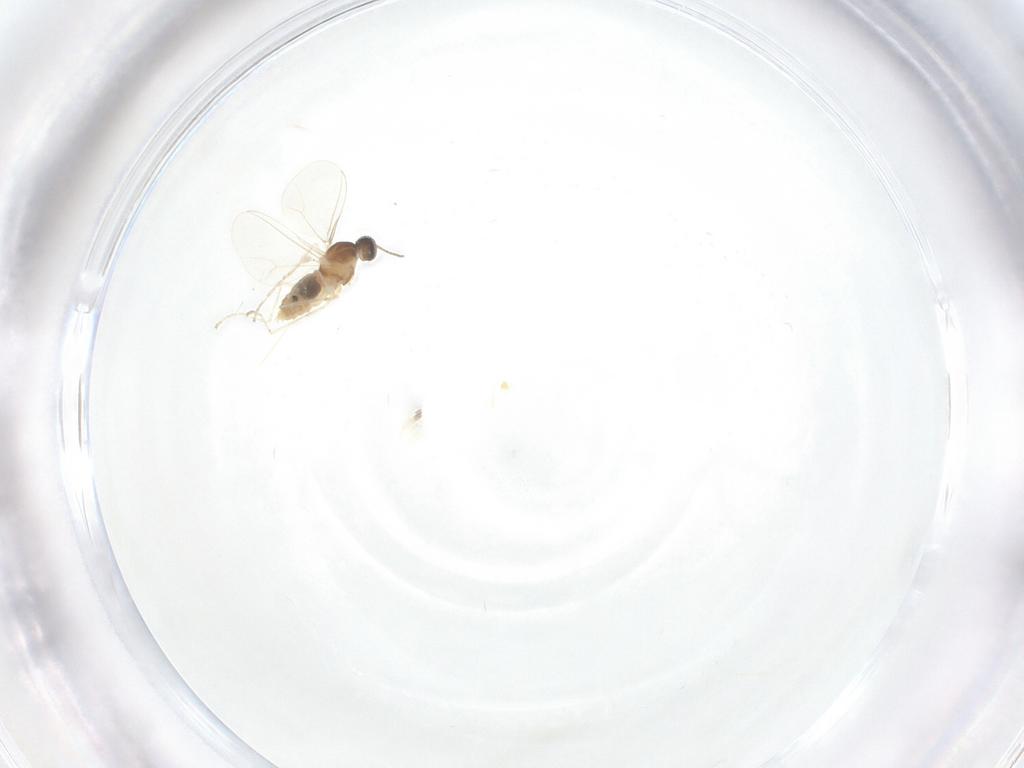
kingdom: Animalia
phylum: Arthropoda
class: Insecta
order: Diptera
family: Cecidomyiidae
